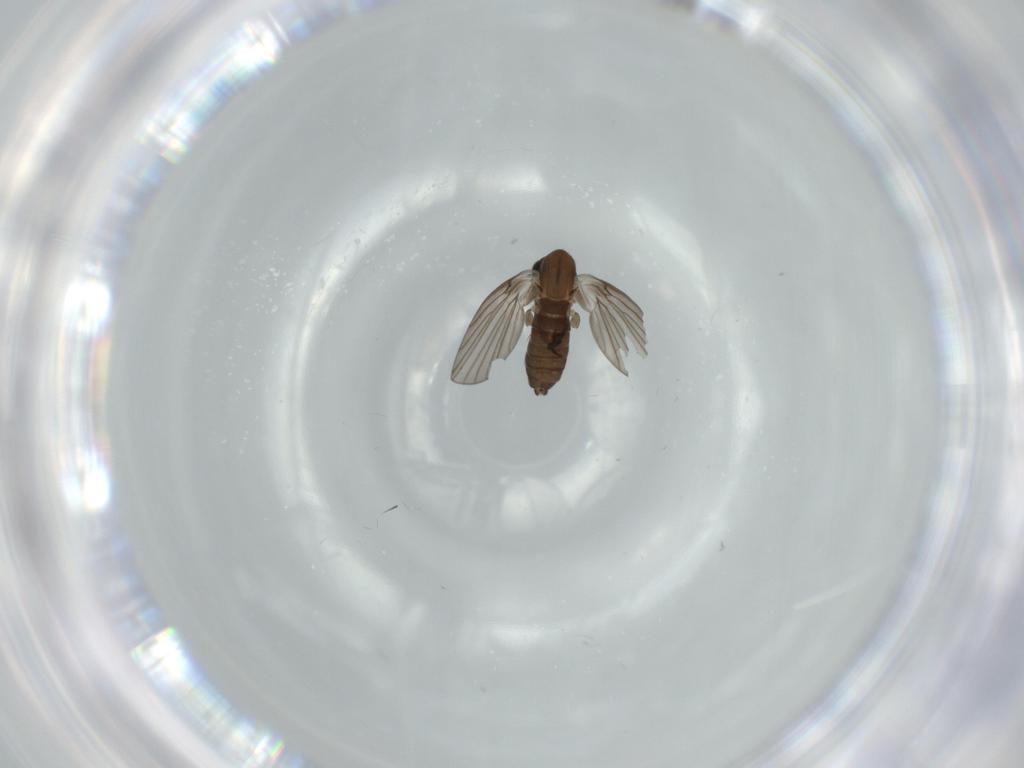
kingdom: Animalia
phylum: Arthropoda
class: Insecta
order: Diptera
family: Psychodidae
